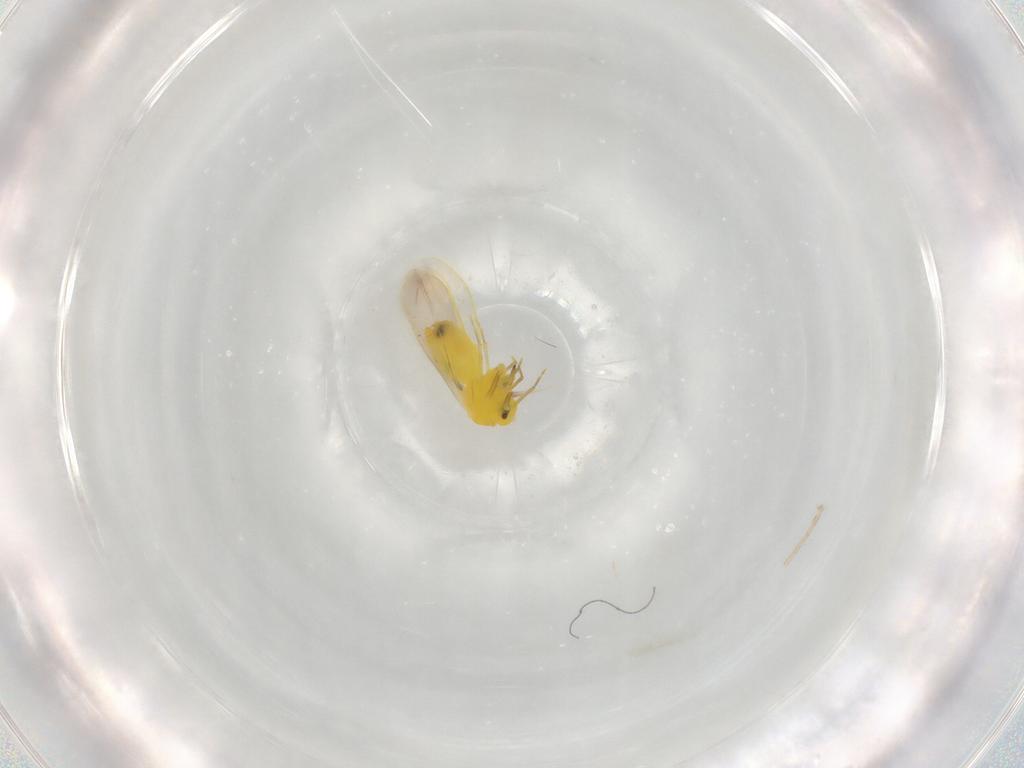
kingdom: Animalia
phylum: Arthropoda
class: Insecta
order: Hemiptera
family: Aleyrodidae
